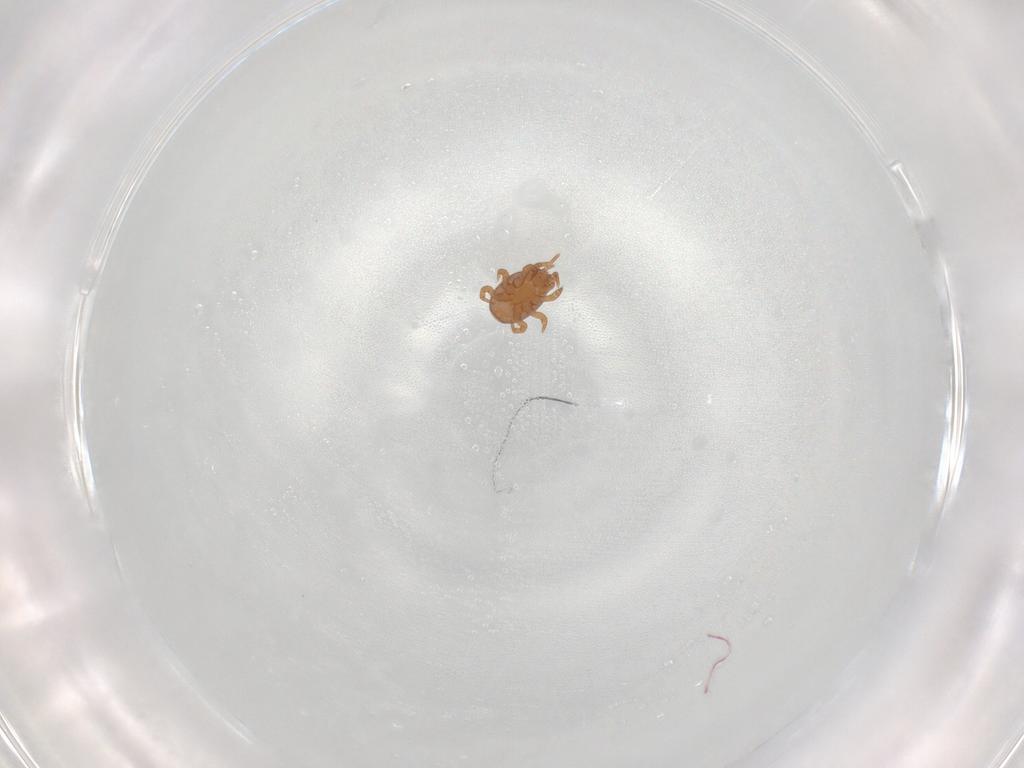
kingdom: Animalia
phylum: Arthropoda
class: Arachnida
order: Mesostigmata
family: Eviphididae
